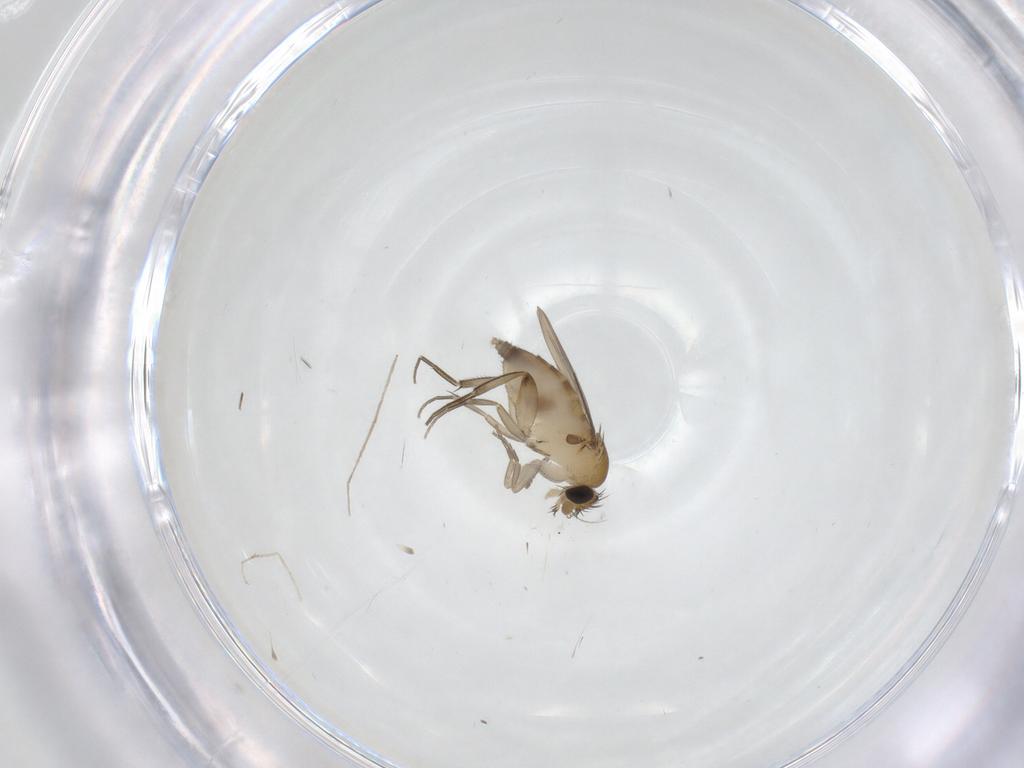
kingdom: Animalia
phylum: Arthropoda
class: Insecta
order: Diptera
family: Phoridae
